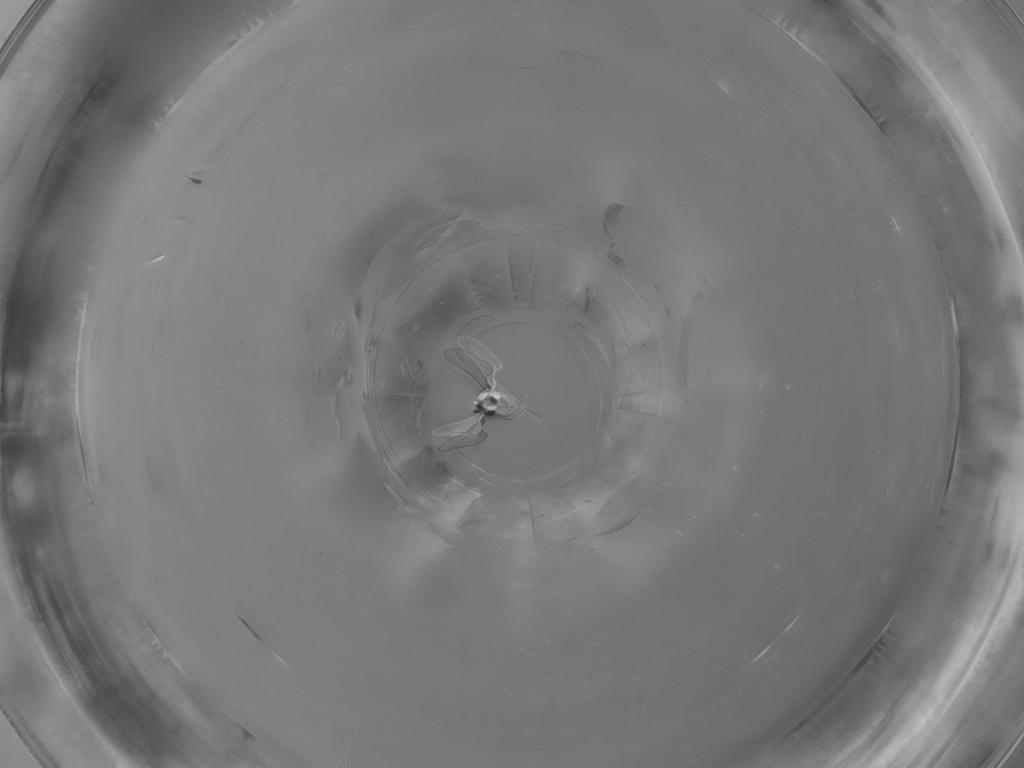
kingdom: Animalia
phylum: Arthropoda
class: Insecta
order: Diptera
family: Cecidomyiidae
